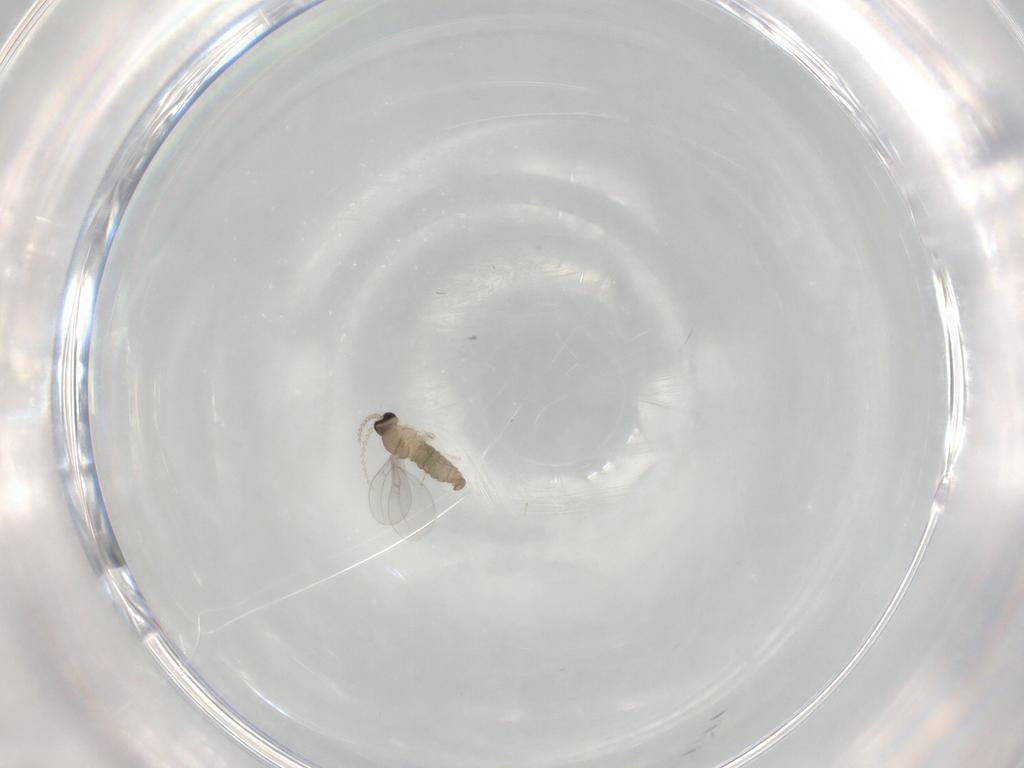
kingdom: Animalia
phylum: Arthropoda
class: Insecta
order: Diptera
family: Cecidomyiidae
